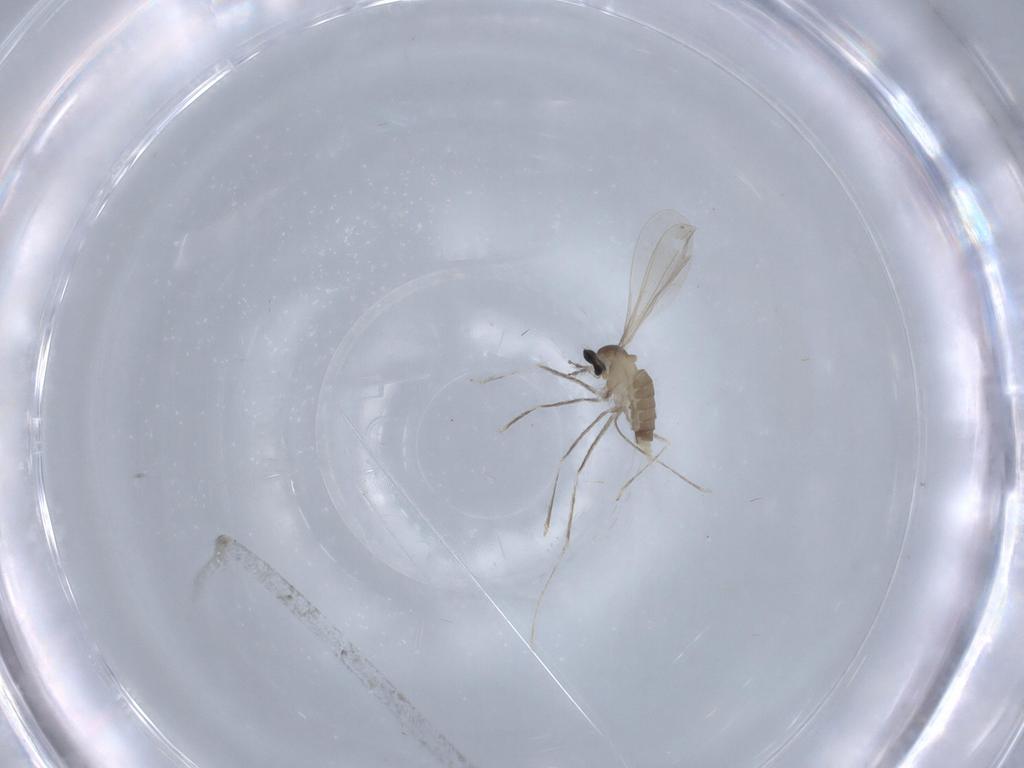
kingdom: Animalia
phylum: Arthropoda
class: Insecta
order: Diptera
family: Cecidomyiidae
